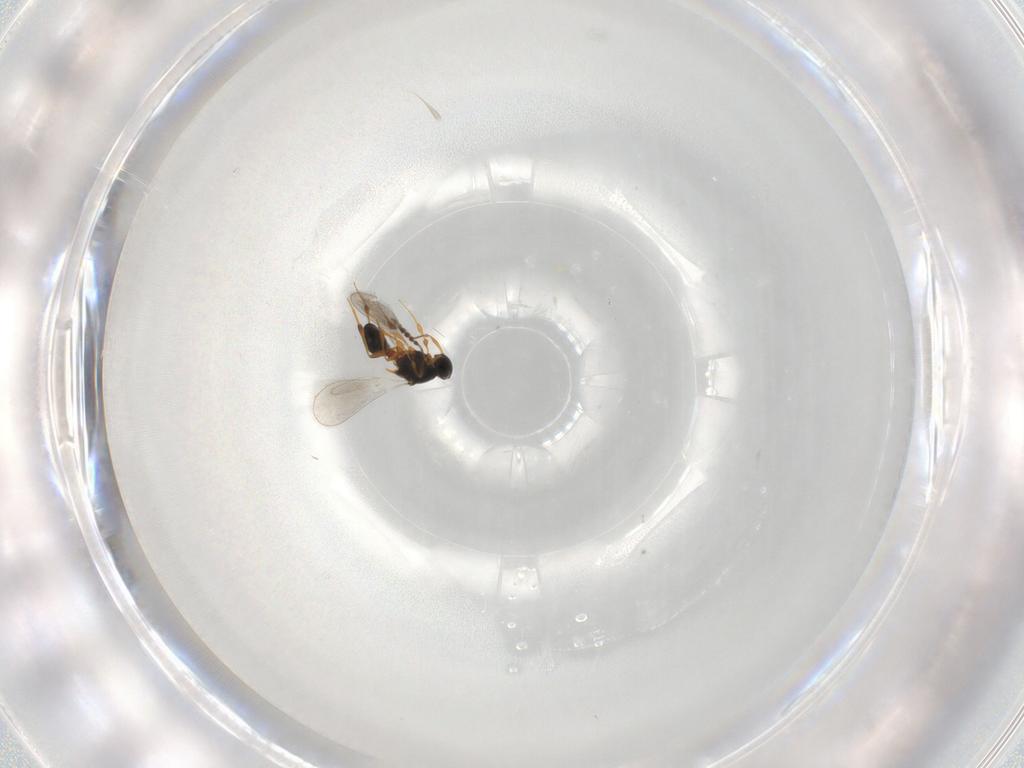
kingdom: Animalia
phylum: Arthropoda
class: Insecta
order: Hymenoptera
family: Platygastridae
